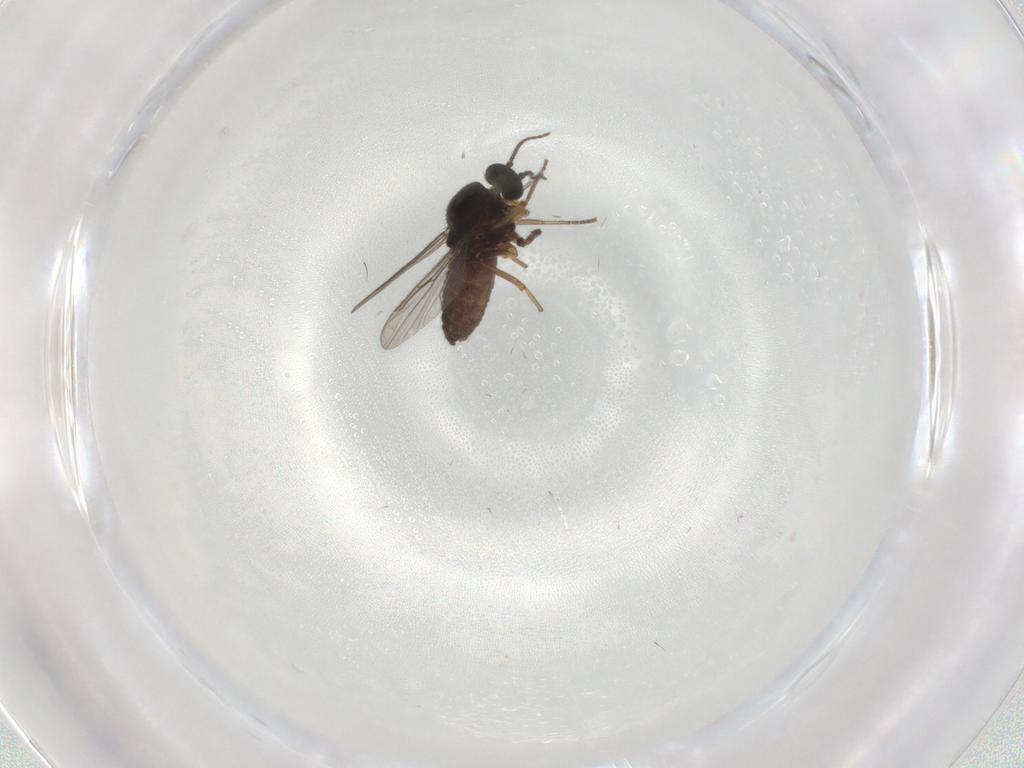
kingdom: Animalia
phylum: Arthropoda
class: Insecta
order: Diptera
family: Ceratopogonidae
